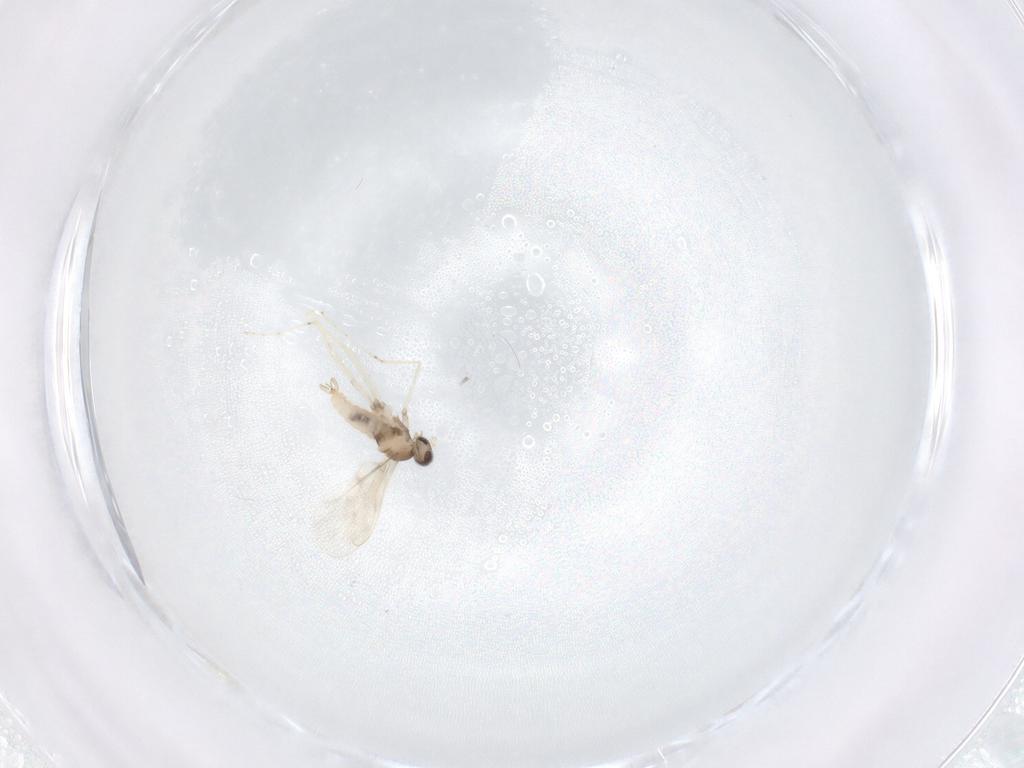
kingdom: Animalia
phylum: Arthropoda
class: Insecta
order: Diptera
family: Cecidomyiidae
